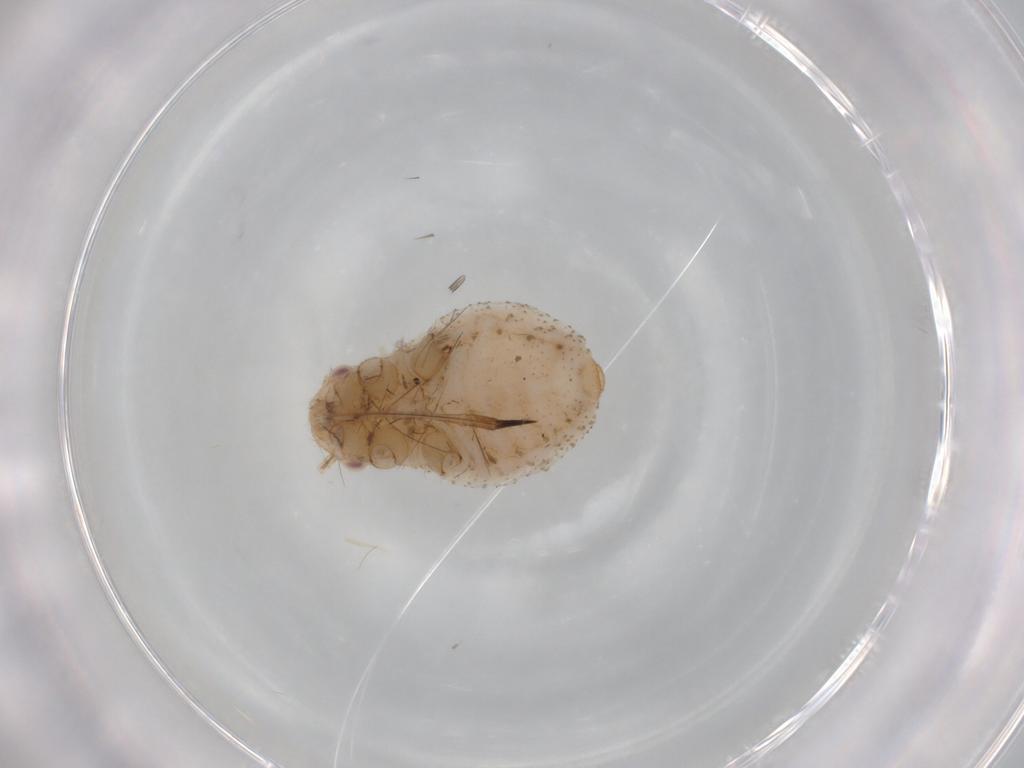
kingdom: Animalia
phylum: Arthropoda
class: Insecta
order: Hemiptera
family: Aphididae
